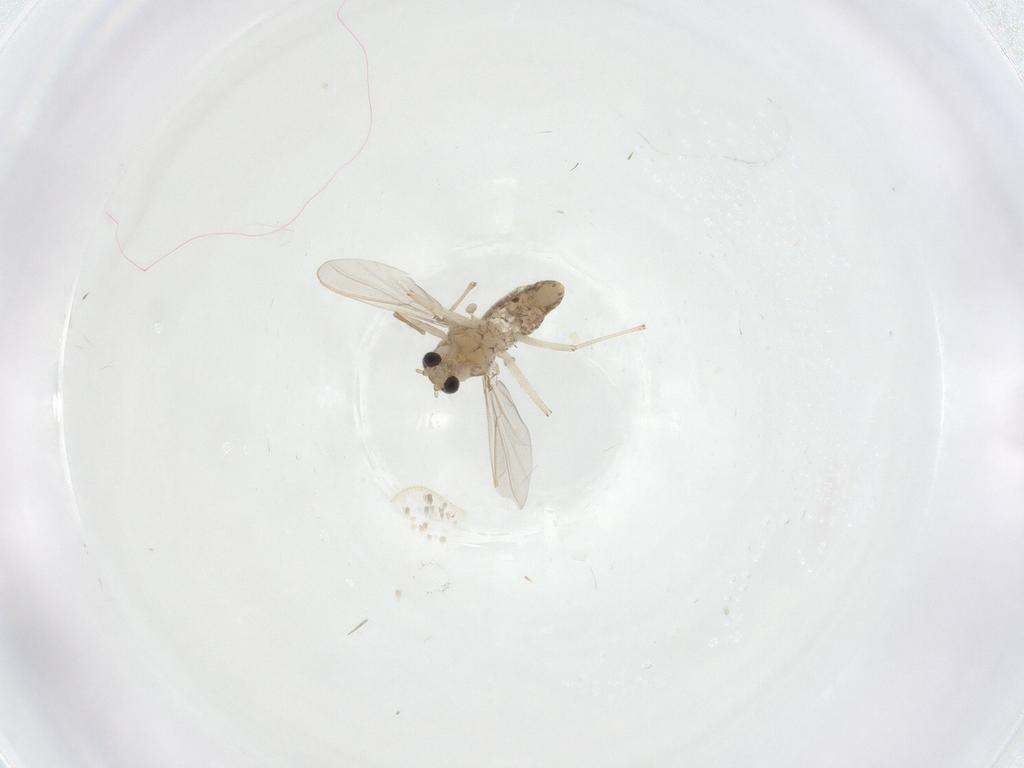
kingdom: Animalia
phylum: Arthropoda
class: Insecta
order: Diptera
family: Chironomidae
